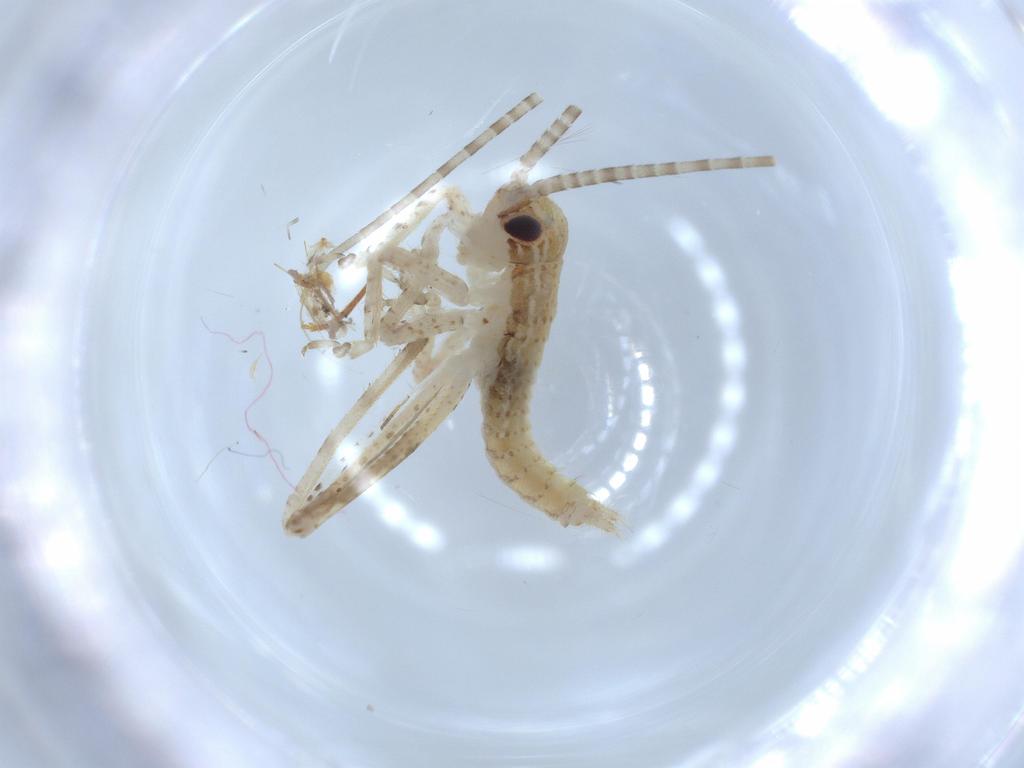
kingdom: Animalia
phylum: Arthropoda
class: Insecta
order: Orthoptera
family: Gryllidae
